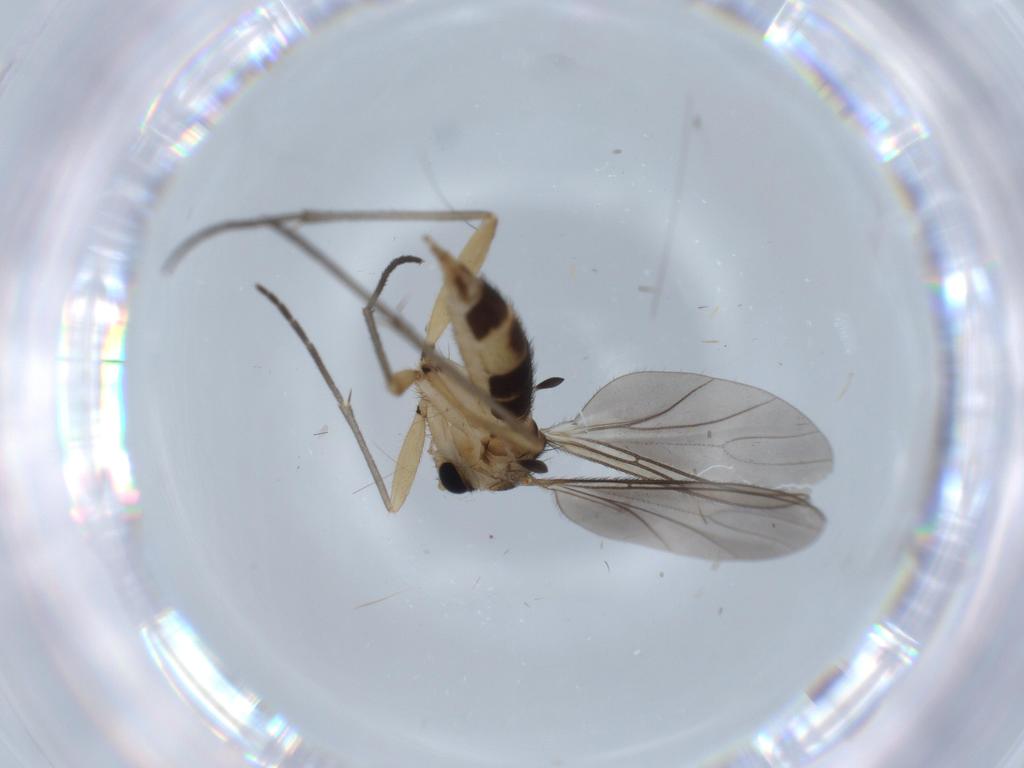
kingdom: Animalia
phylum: Arthropoda
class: Insecta
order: Diptera
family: Sciaridae
